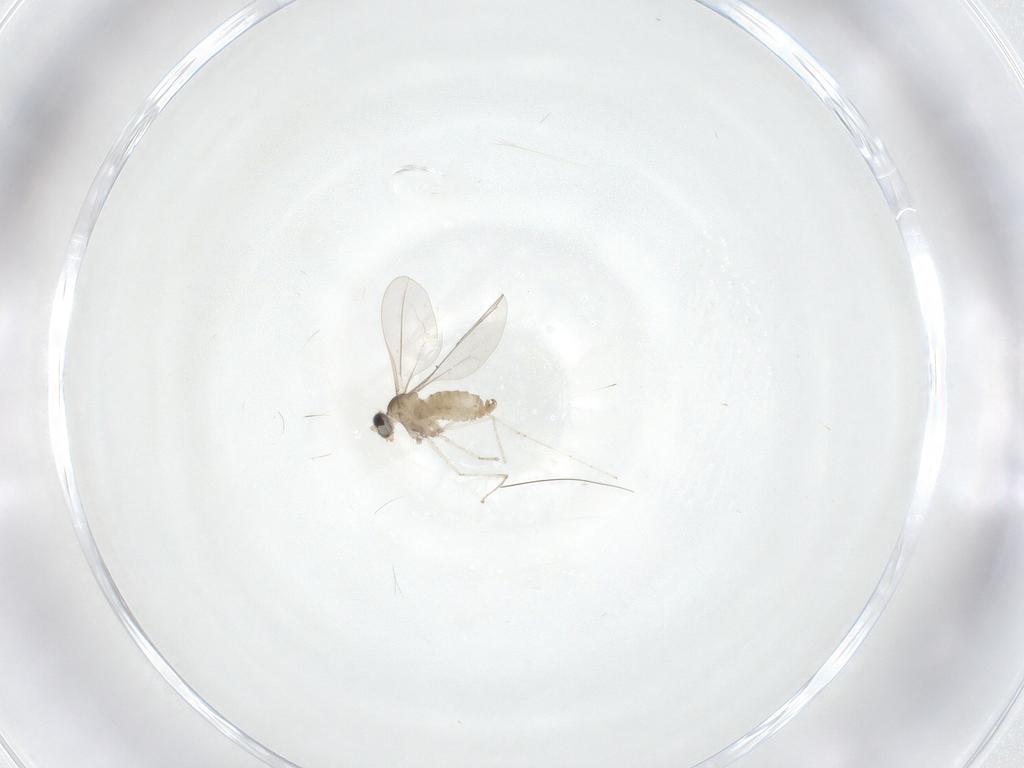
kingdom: Animalia
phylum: Arthropoda
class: Insecta
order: Diptera
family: Cecidomyiidae
